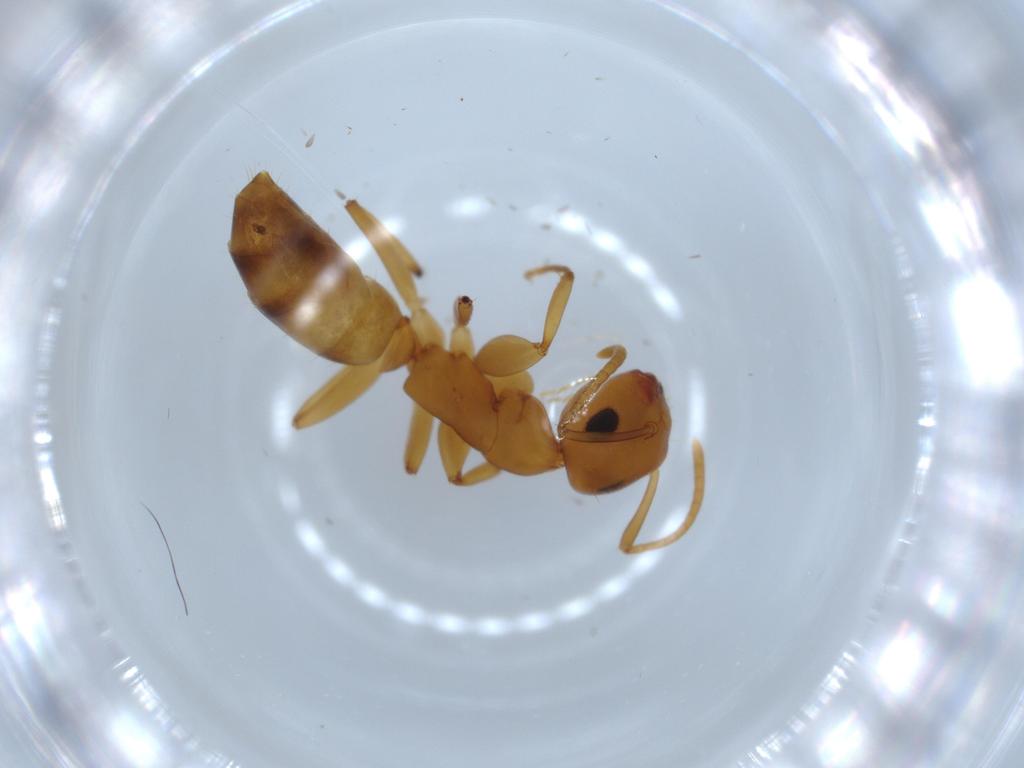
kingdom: Animalia
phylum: Arthropoda
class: Insecta
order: Hymenoptera
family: Formicidae
